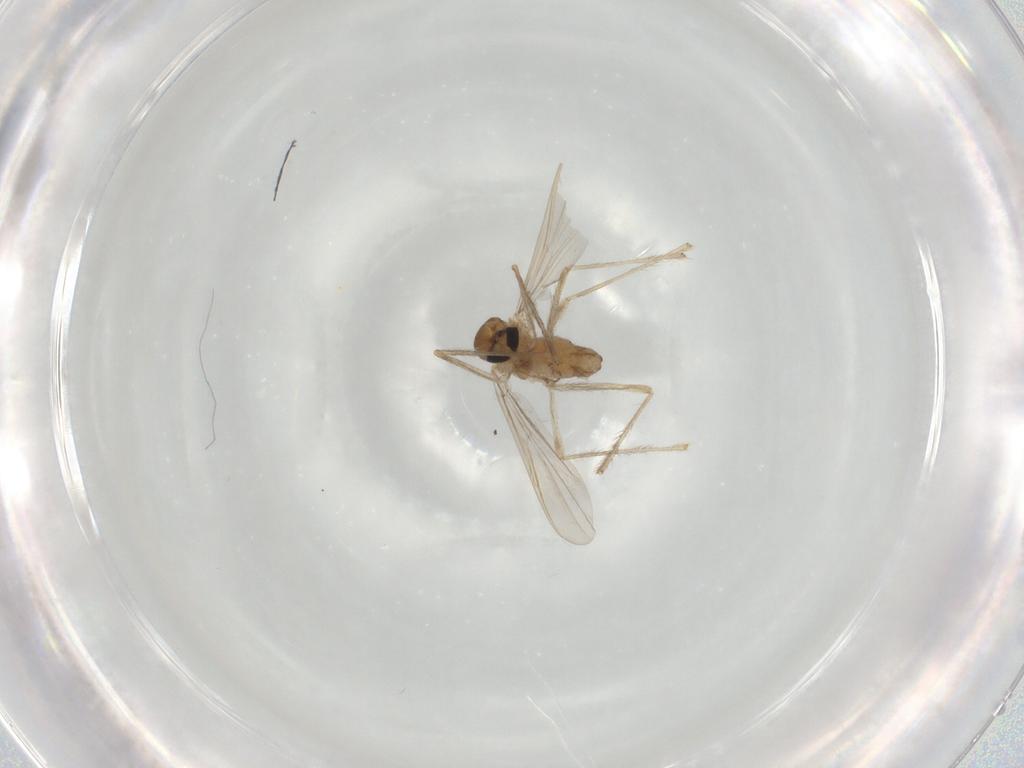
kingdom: Animalia
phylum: Arthropoda
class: Insecta
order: Diptera
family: Chironomidae
